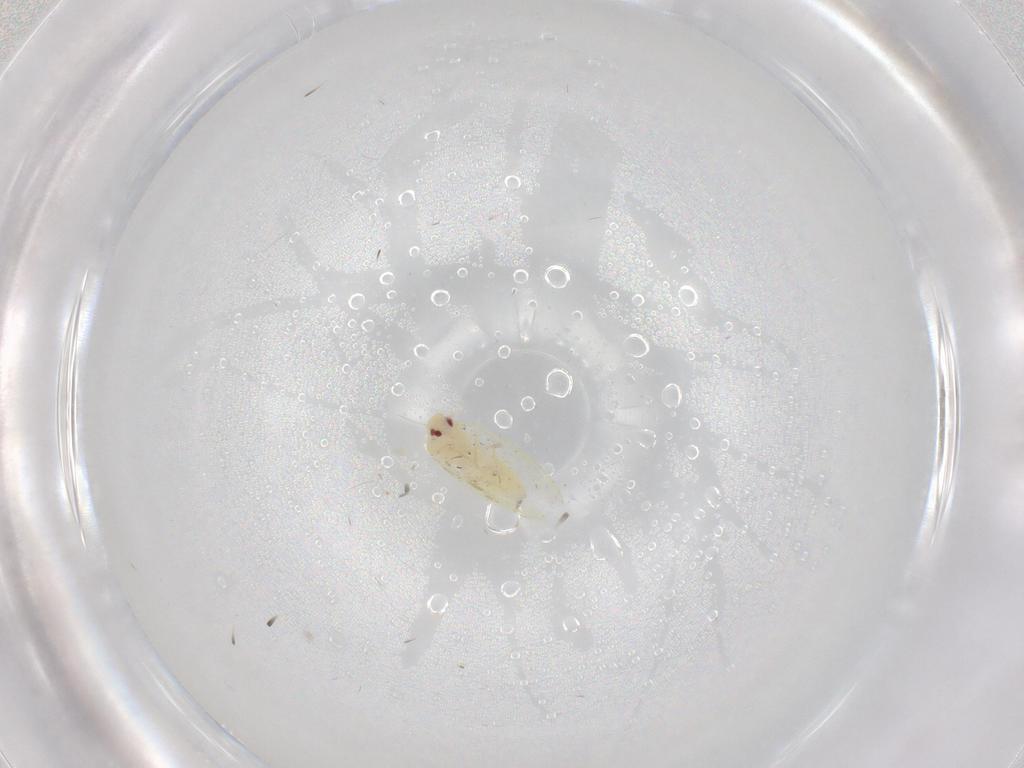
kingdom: Animalia
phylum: Arthropoda
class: Insecta
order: Hemiptera
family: Aleyrodidae
